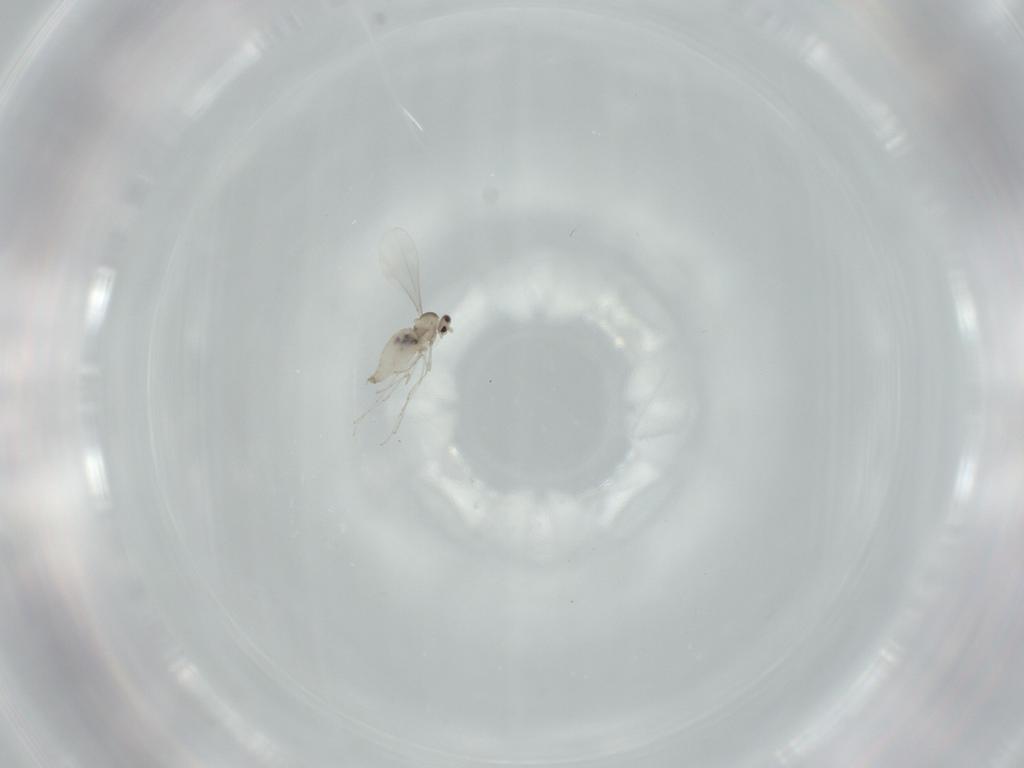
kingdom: Animalia
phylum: Arthropoda
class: Insecta
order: Diptera
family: Cecidomyiidae
